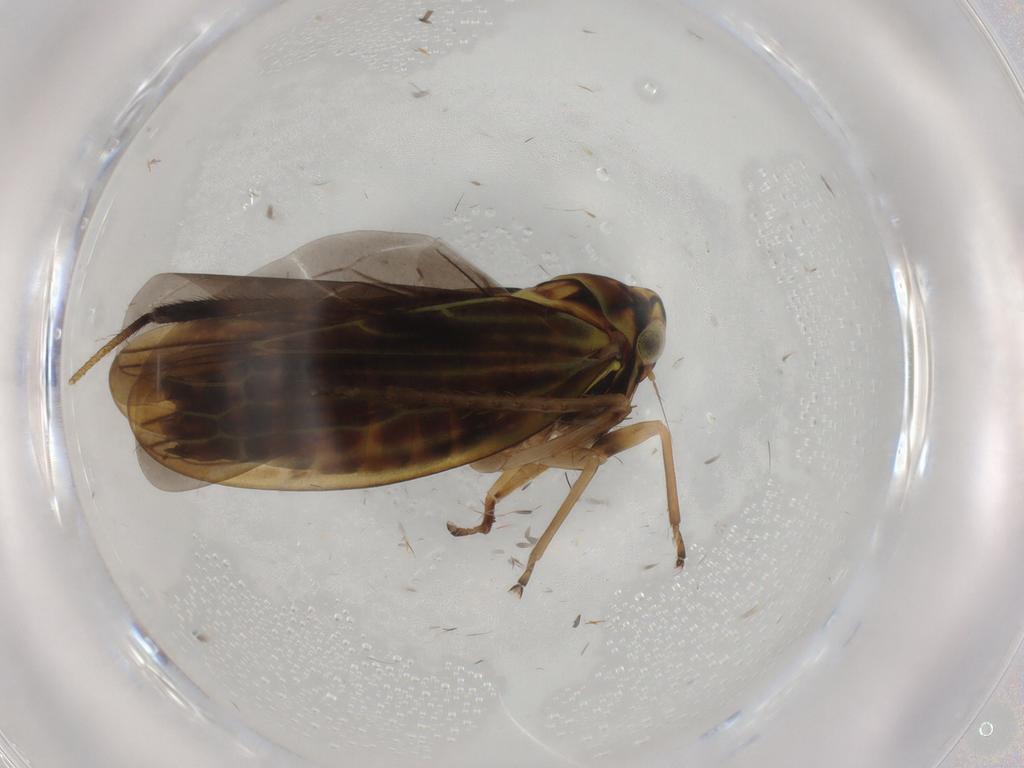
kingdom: Animalia
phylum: Arthropoda
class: Insecta
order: Hemiptera
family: Cicadellidae
